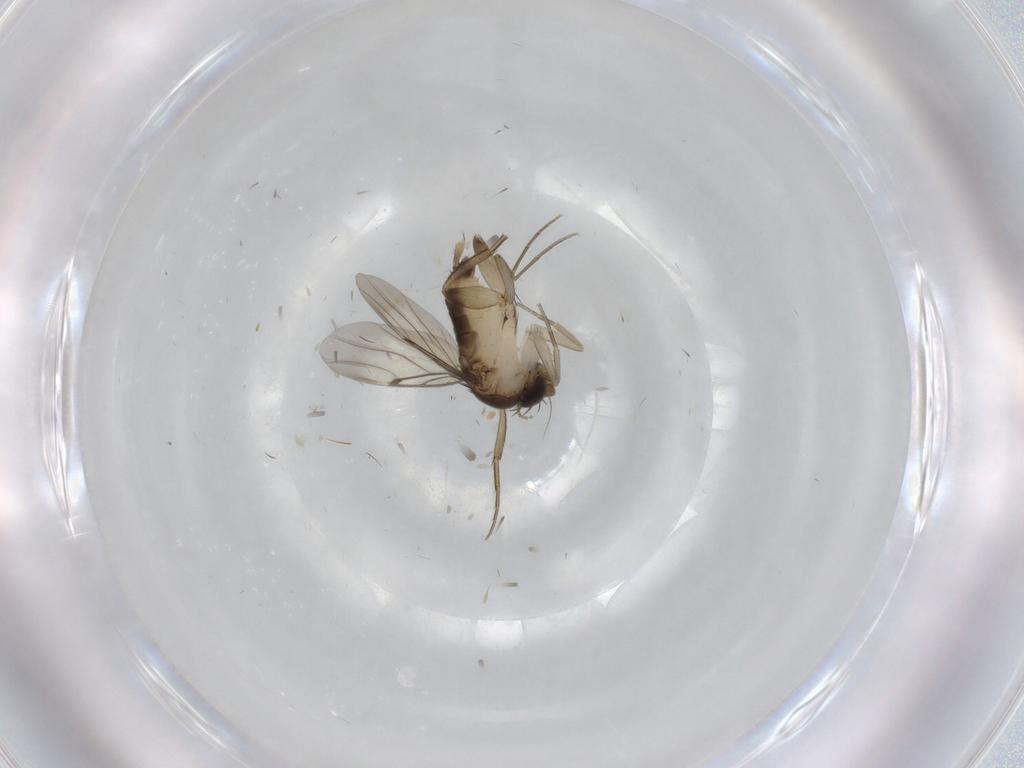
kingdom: Animalia
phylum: Arthropoda
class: Insecta
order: Diptera
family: Phoridae
